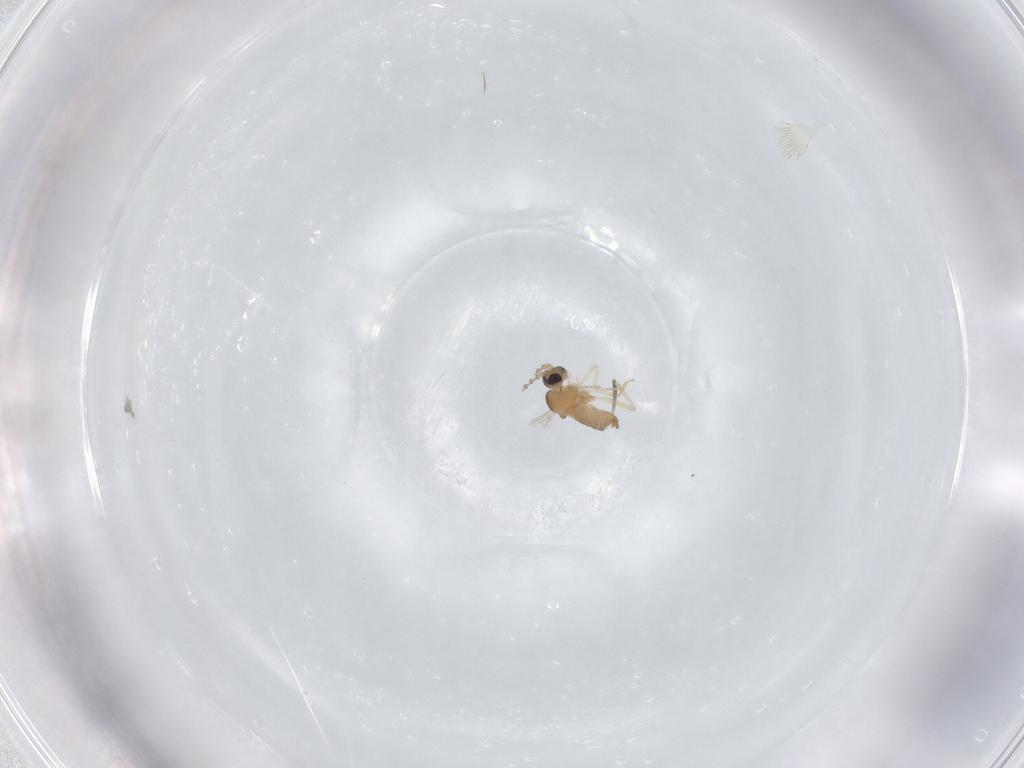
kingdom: Animalia
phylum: Arthropoda
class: Insecta
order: Diptera
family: Cecidomyiidae
